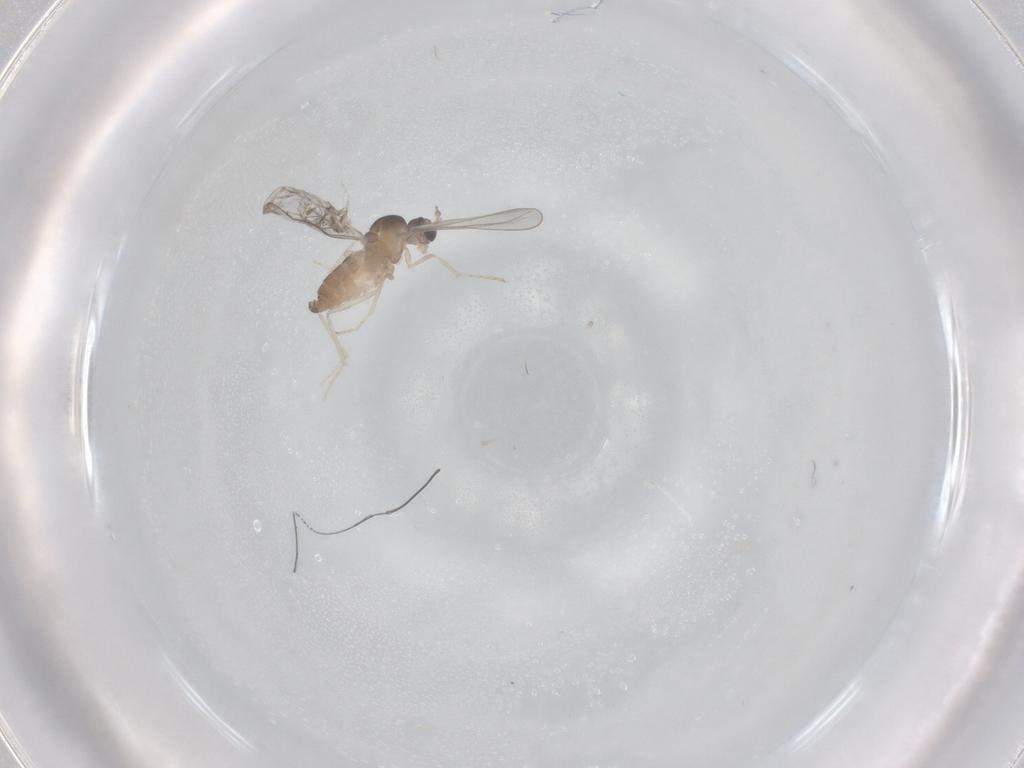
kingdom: Animalia
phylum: Arthropoda
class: Insecta
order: Diptera
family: Cecidomyiidae
